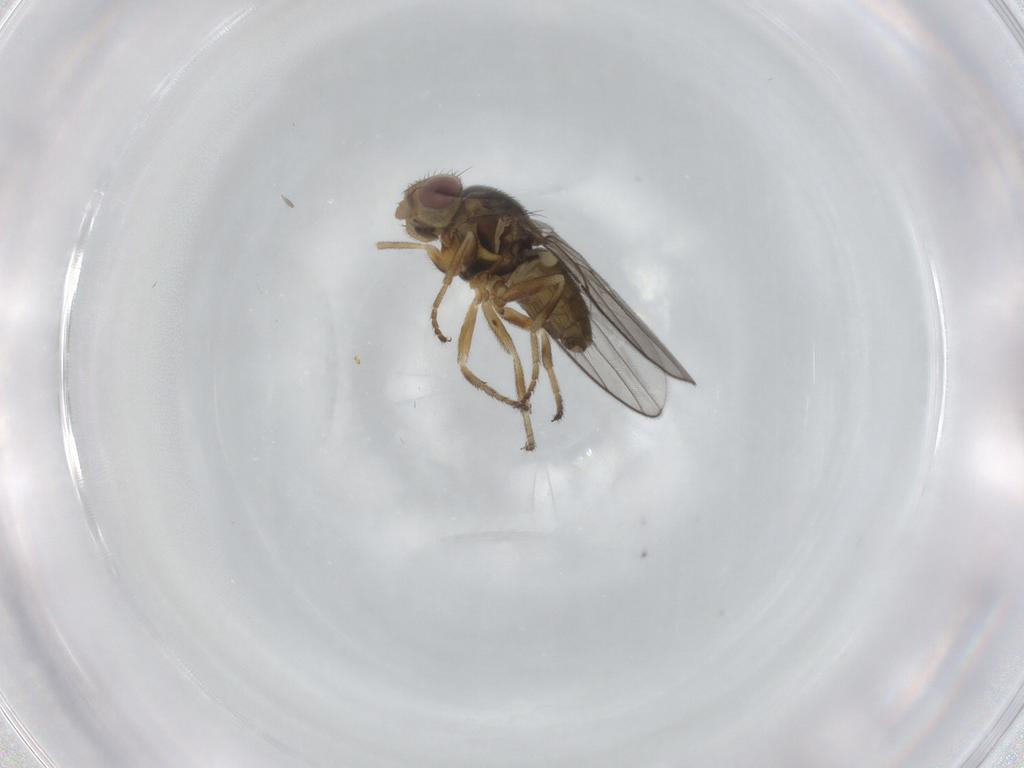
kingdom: Animalia
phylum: Arthropoda
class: Insecta
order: Diptera
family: Chloropidae
